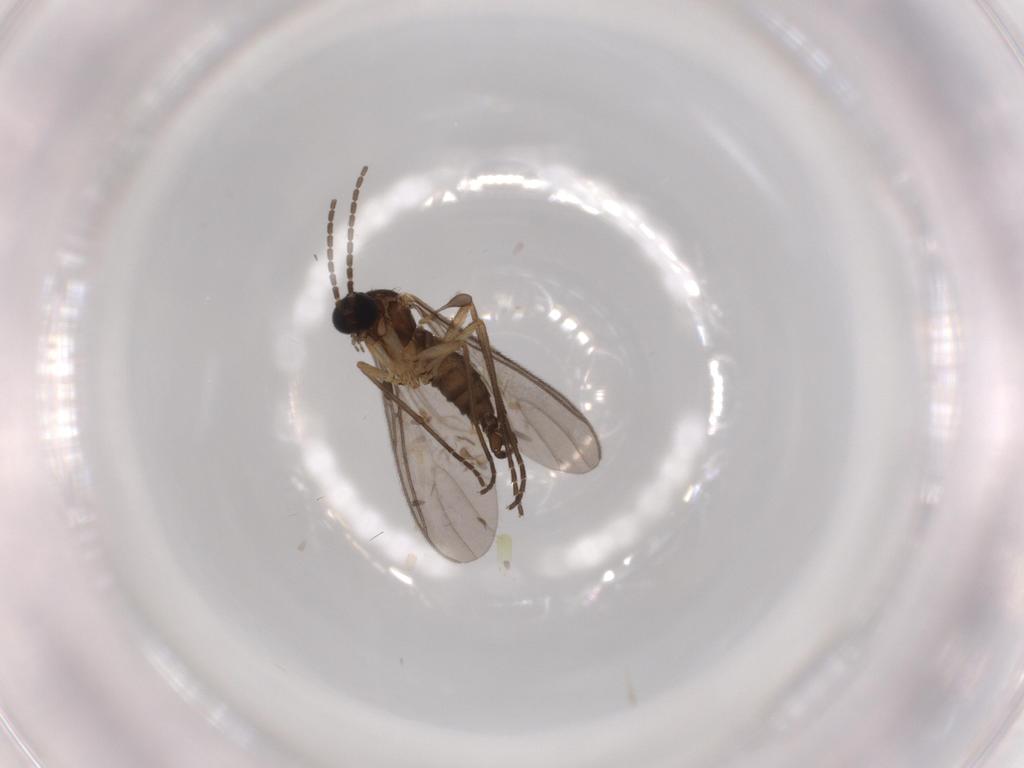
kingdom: Animalia
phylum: Arthropoda
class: Insecta
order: Diptera
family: Sciaridae
